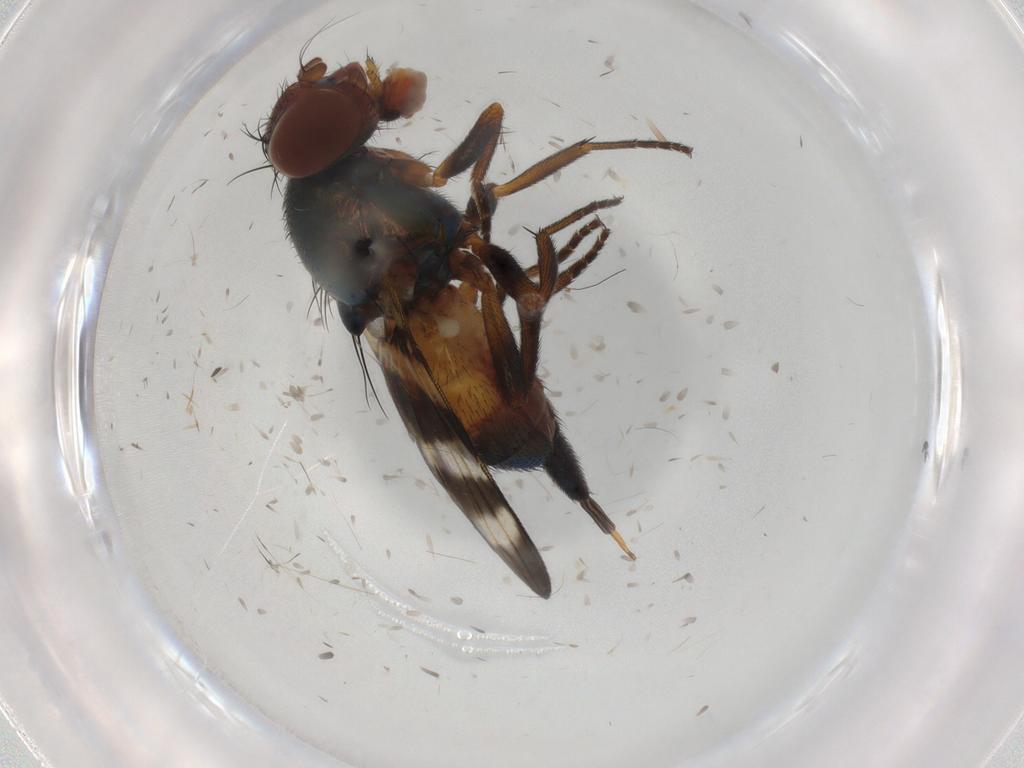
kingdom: Animalia
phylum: Arthropoda
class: Insecta
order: Diptera
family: Ulidiidae
